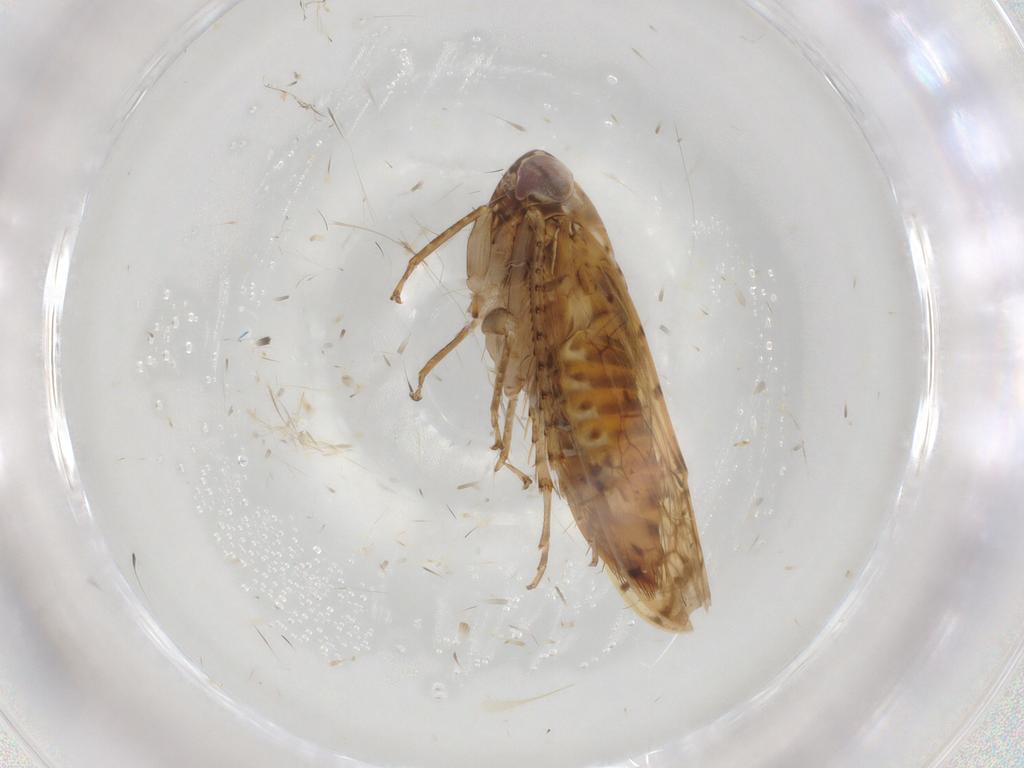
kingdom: Animalia
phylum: Arthropoda
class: Insecta
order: Hemiptera
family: Cicadellidae
